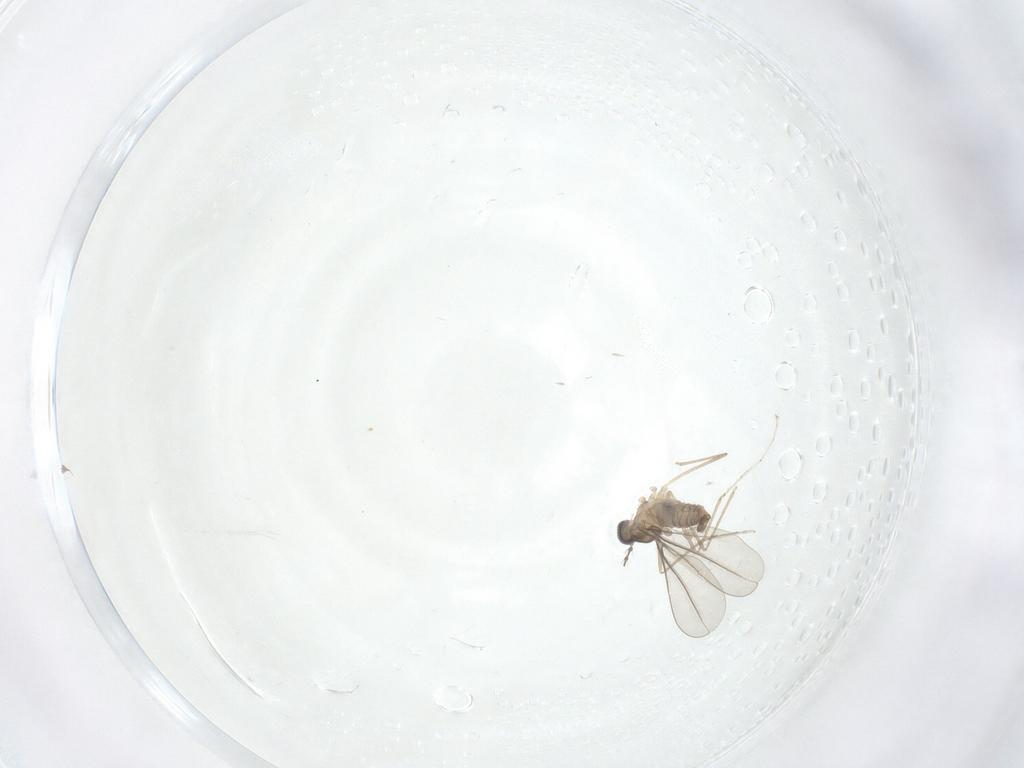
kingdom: Animalia
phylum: Arthropoda
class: Insecta
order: Diptera
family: Cecidomyiidae
